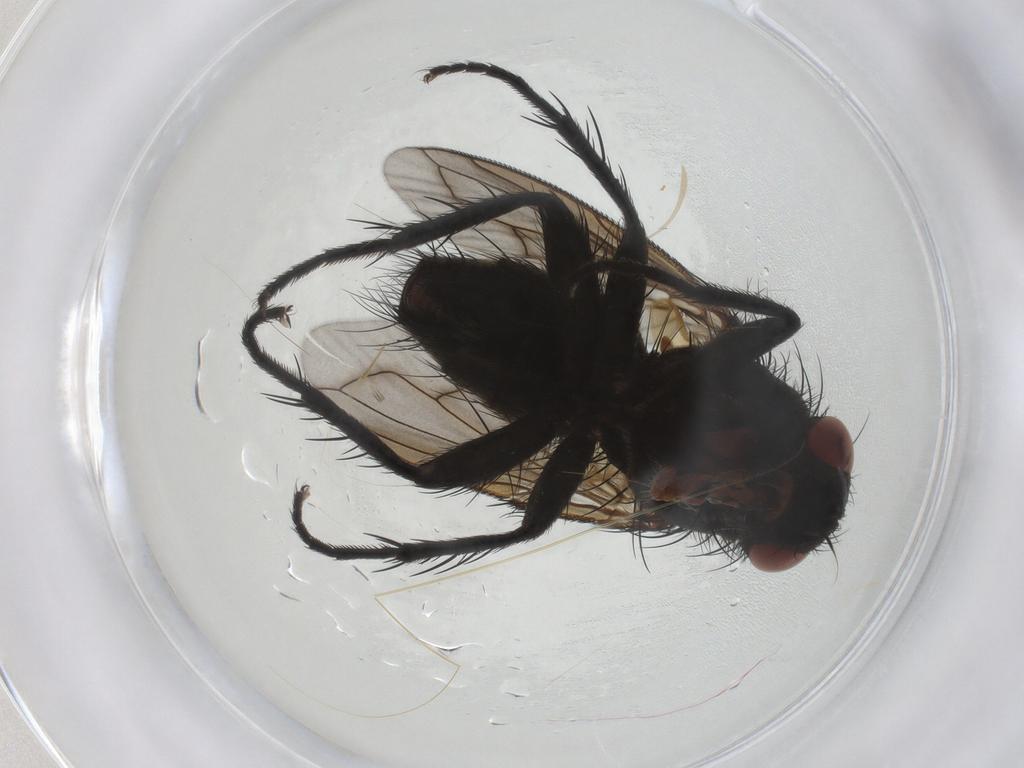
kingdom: Animalia
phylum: Arthropoda
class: Insecta
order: Diptera
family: Tachinidae
